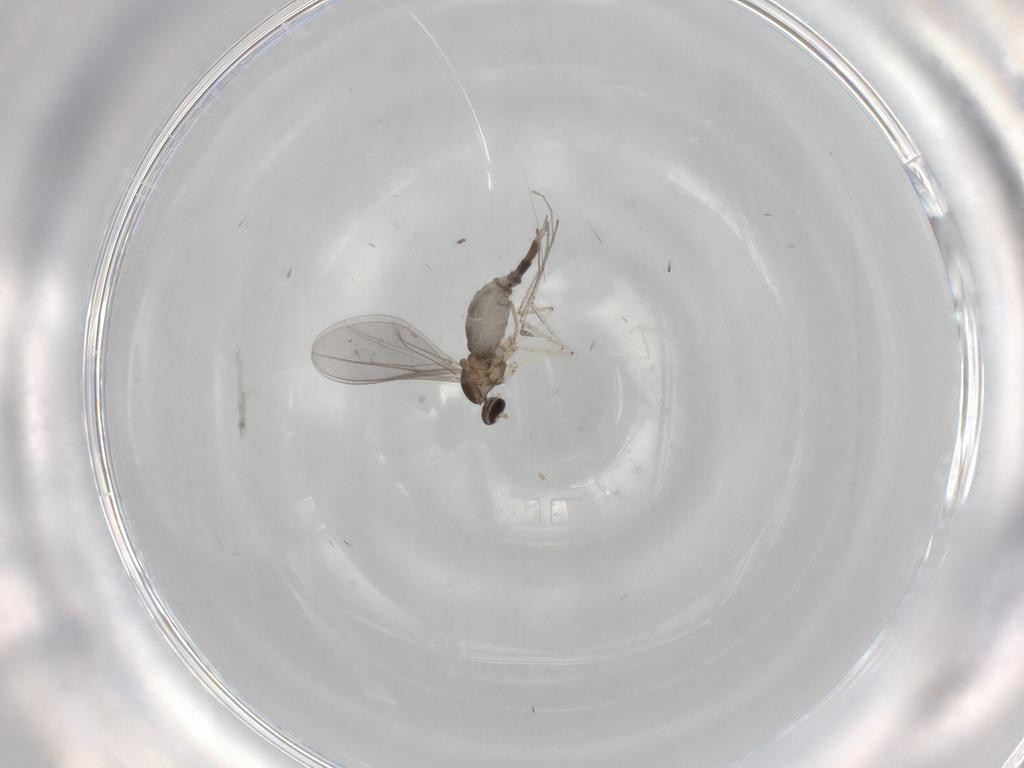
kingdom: Animalia
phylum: Arthropoda
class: Insecta
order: Diptera
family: Cecidomyiidae
